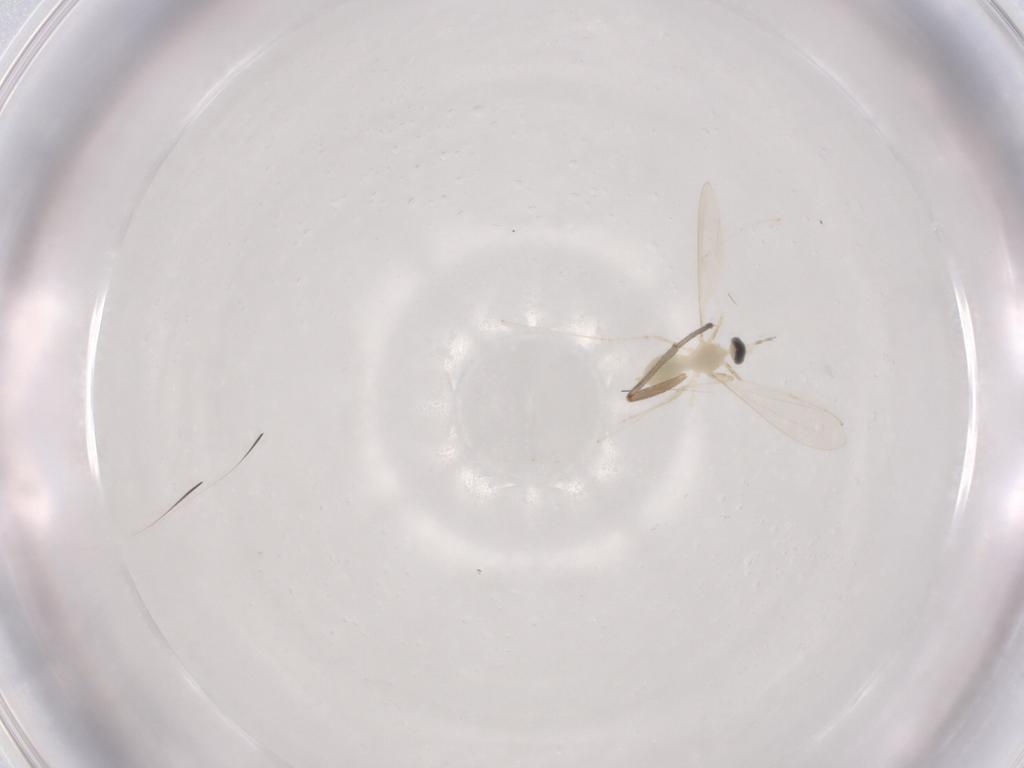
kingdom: Animalia
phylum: Arthropoda
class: Insecta
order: Diptera
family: Cecidomyiidae
